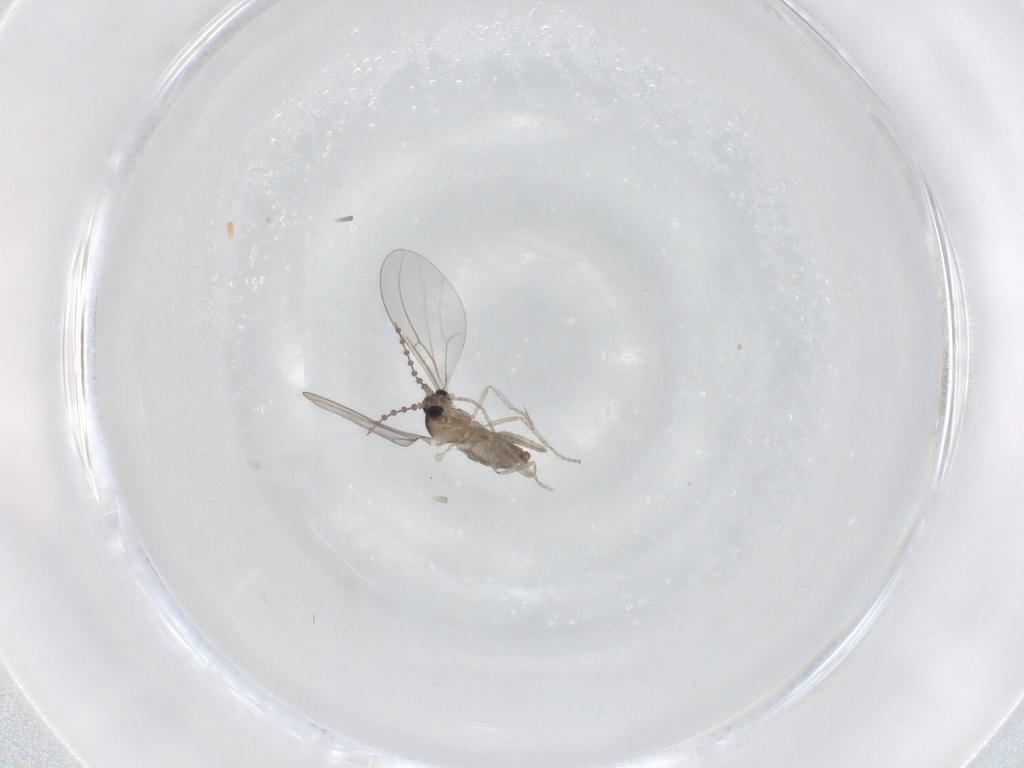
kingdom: Animalia
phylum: Arthropoda
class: Insecta
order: Diptera
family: Cecidomyiidae
